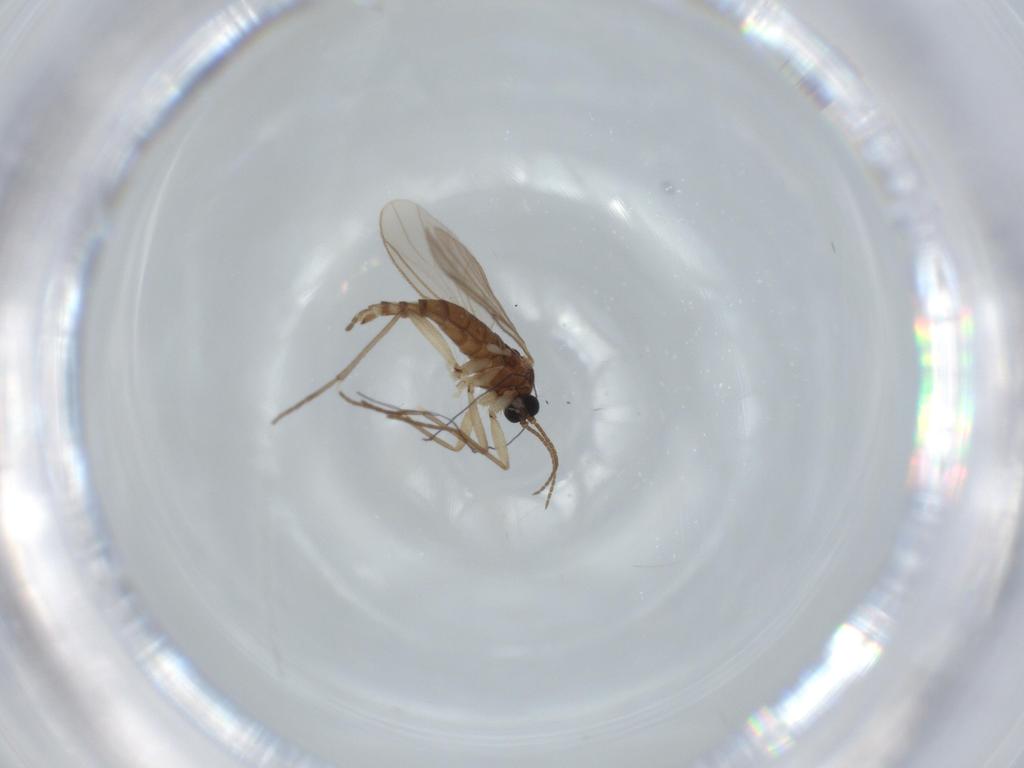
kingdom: Animalia
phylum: Arthropoda
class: Insecta
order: Diptera
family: Sciaridae
